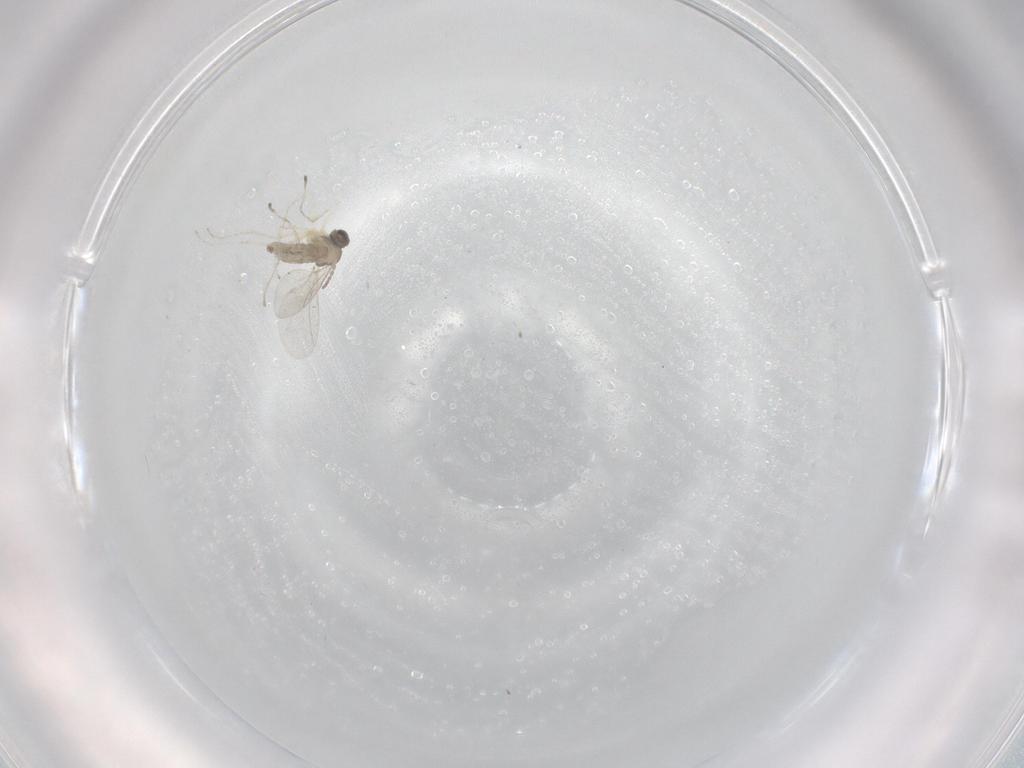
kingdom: Animalia
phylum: Arthropoda
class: Insecta
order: Diptera
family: Cecidomyiidae
